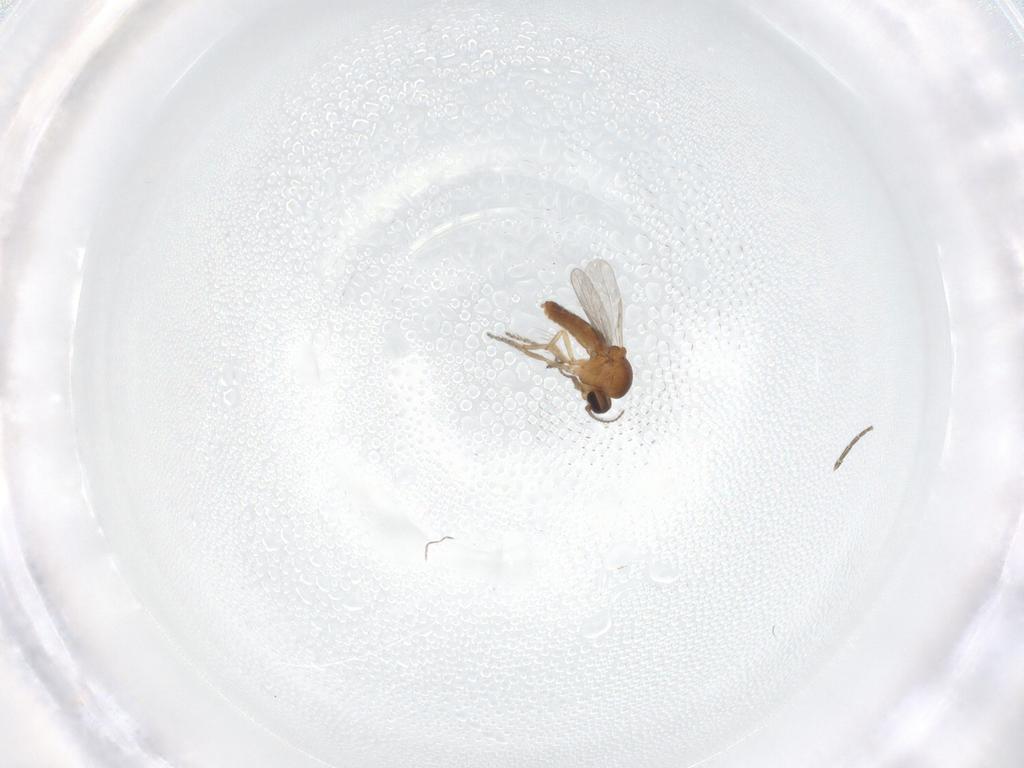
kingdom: Animalia
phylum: Arthropoda
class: Insecta
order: Diptera
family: Ceratopogonidae
